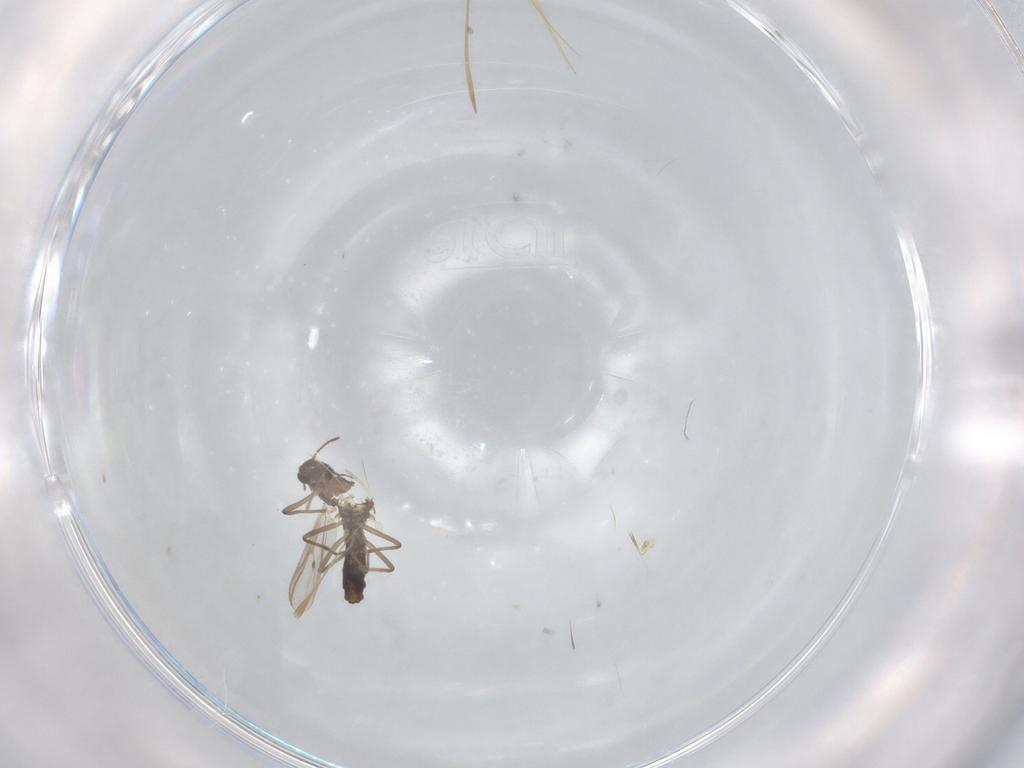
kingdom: Animalia
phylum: Arthropoda
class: Insecta
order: Diptera
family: Chironomidae
